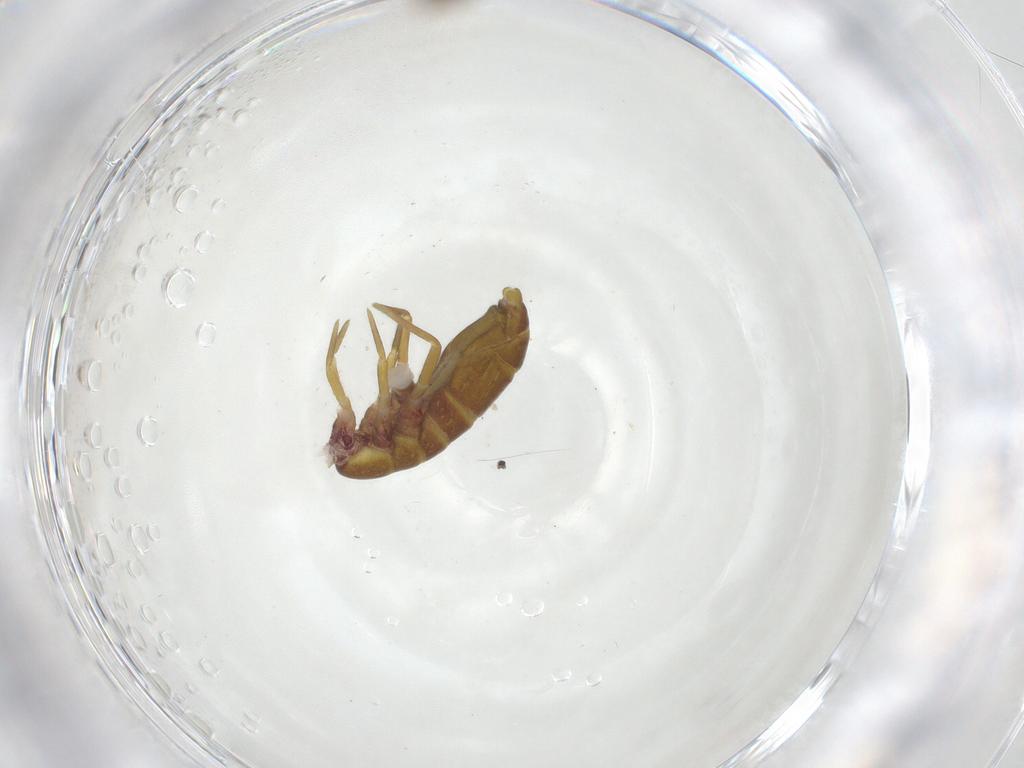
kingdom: Animalia
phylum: Arthropoda
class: Collembola
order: Entomobryomorpha
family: Tomoceridae
